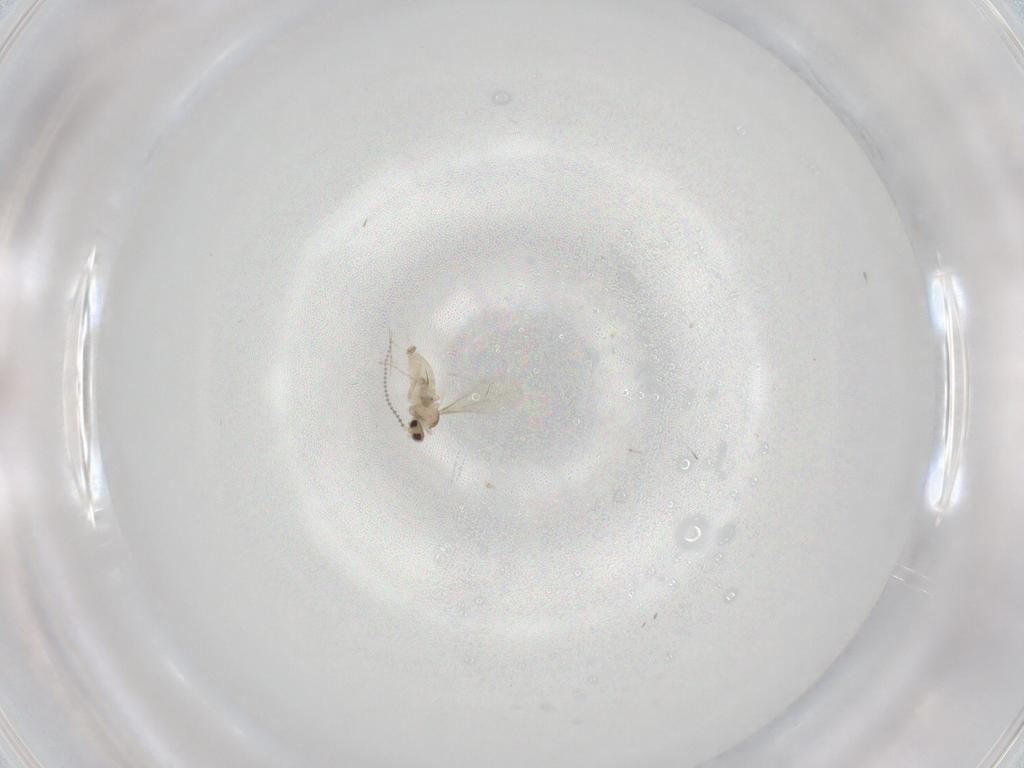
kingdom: Animalia
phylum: Arthropoda
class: Insecta
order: Diptera
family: Cecidomyiidae
